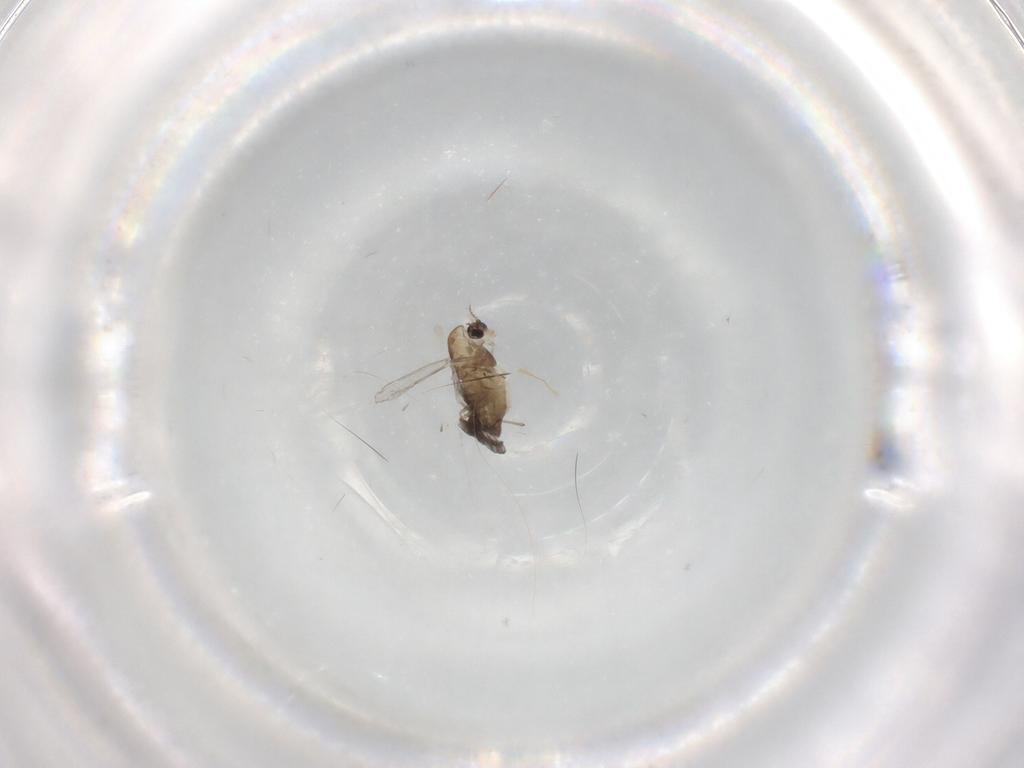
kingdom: Animalia
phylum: Arthropoda
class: Insecta
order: Diptera
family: Chironomidae
